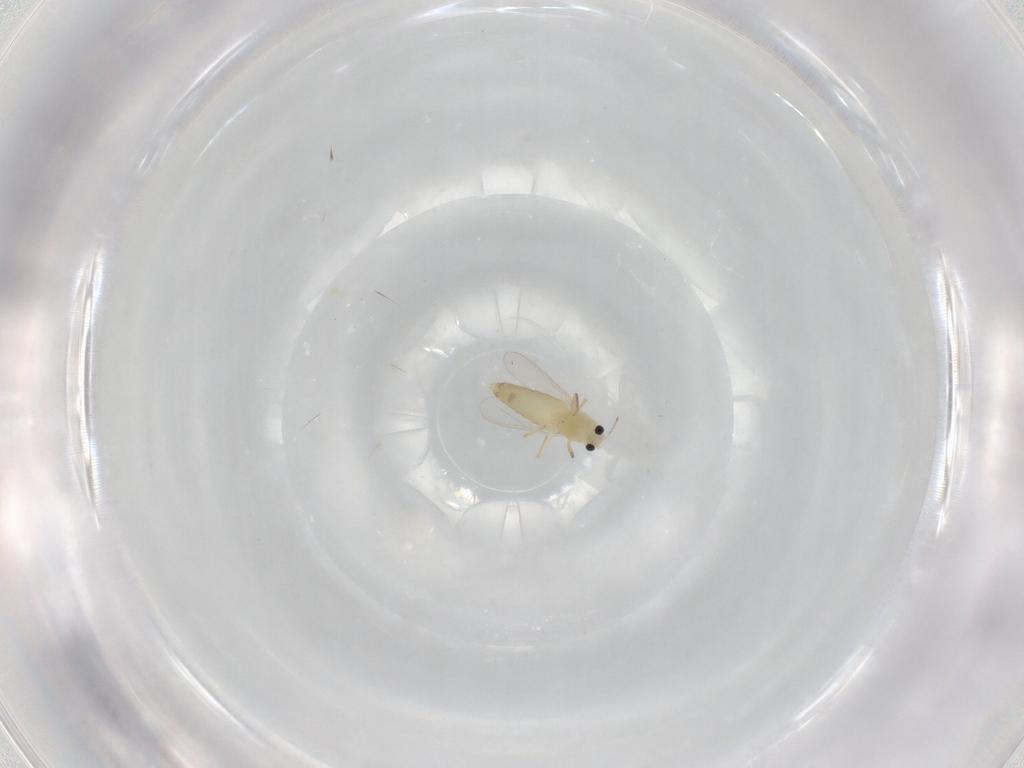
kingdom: Animalia
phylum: Arthropoda
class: Insecta
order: Diptera
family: Chironomidae
